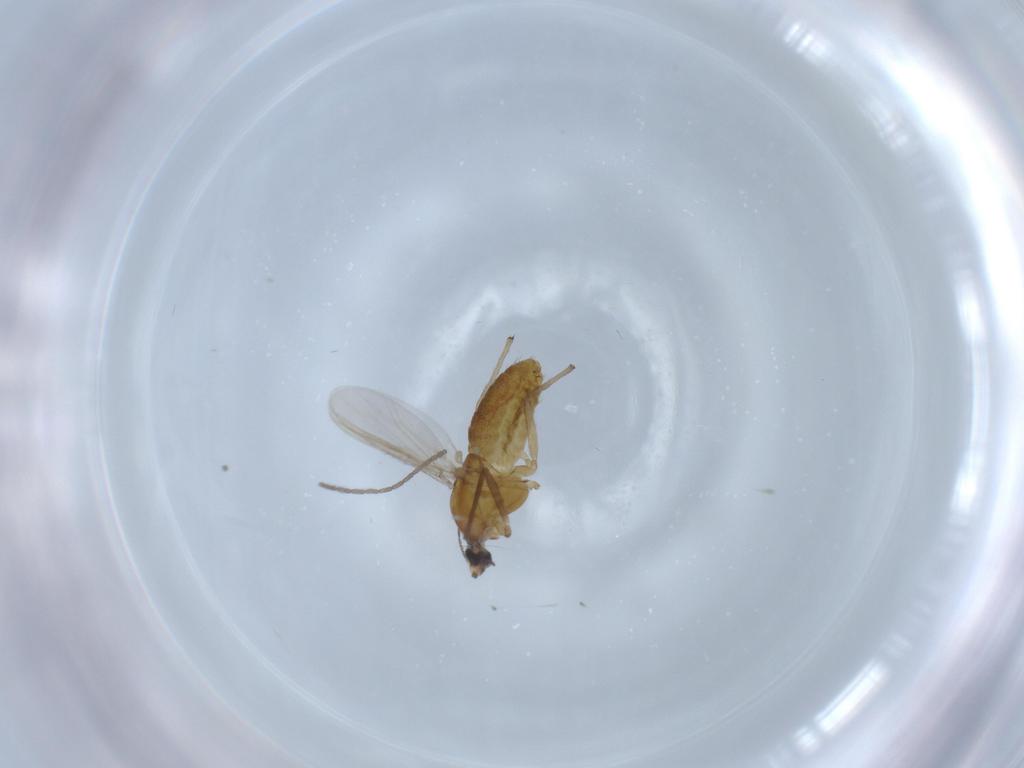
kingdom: Animalia
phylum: Arthropoda
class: Insecta
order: Diptera
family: Chironomidae
